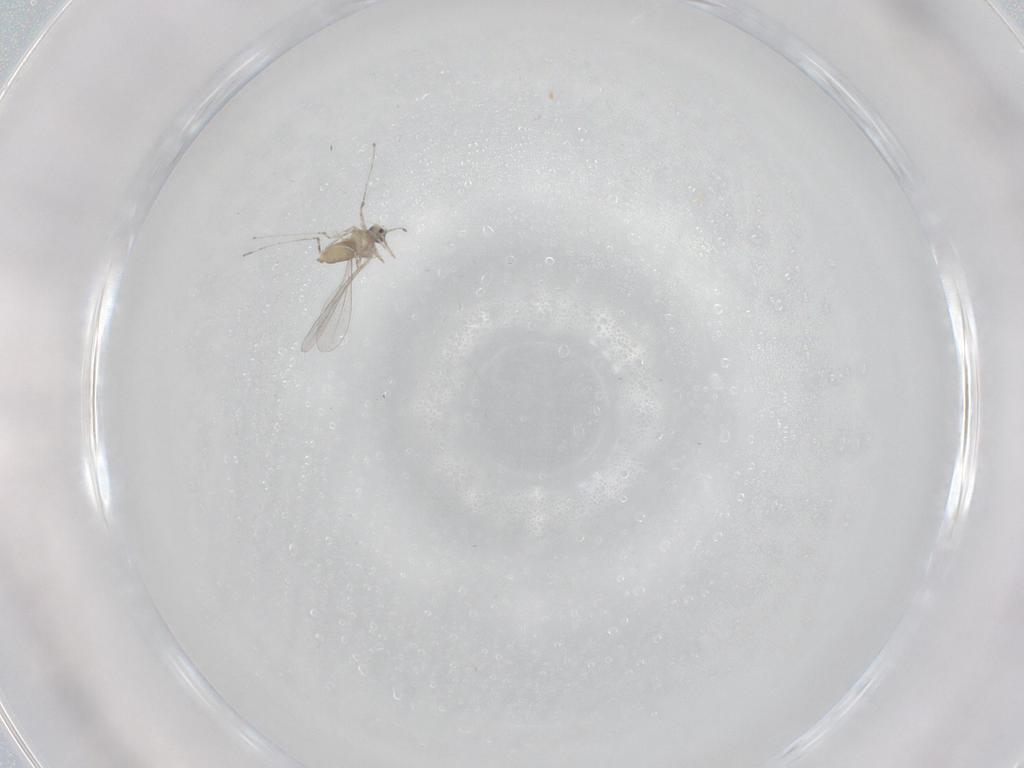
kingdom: Animalia
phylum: Arthropoda
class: Insecta
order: Diptera
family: Cecidomyiidae
